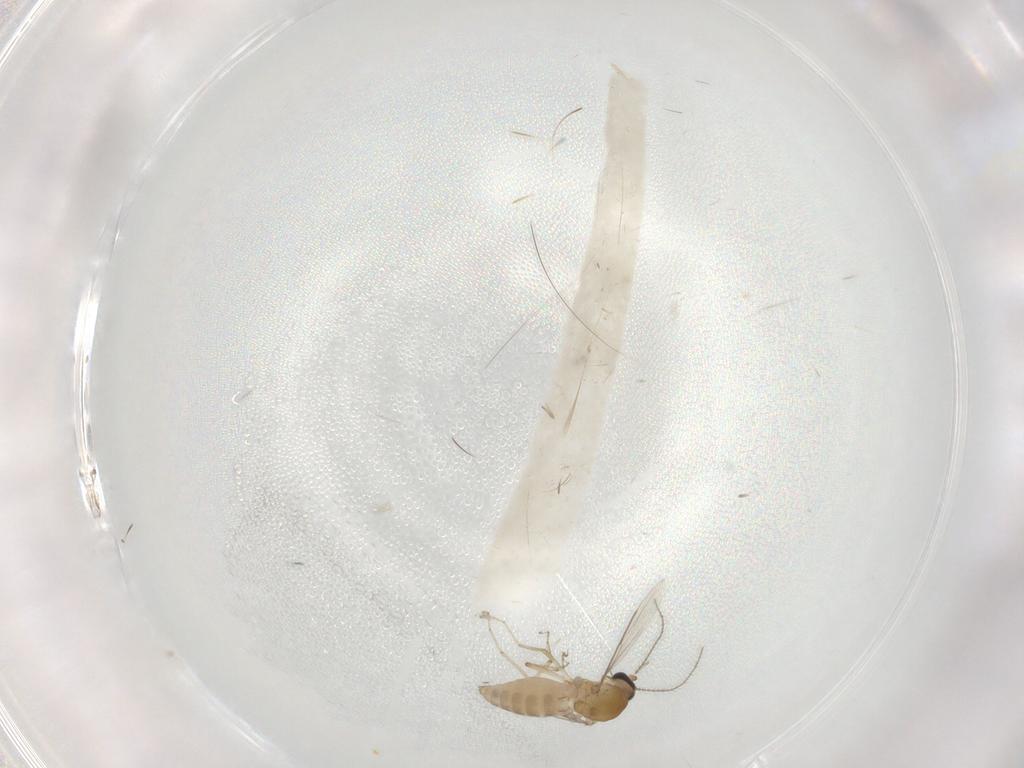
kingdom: Animalia
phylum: Arthropoda
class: Insecta
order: Diptera
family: Ceratopogonidae
